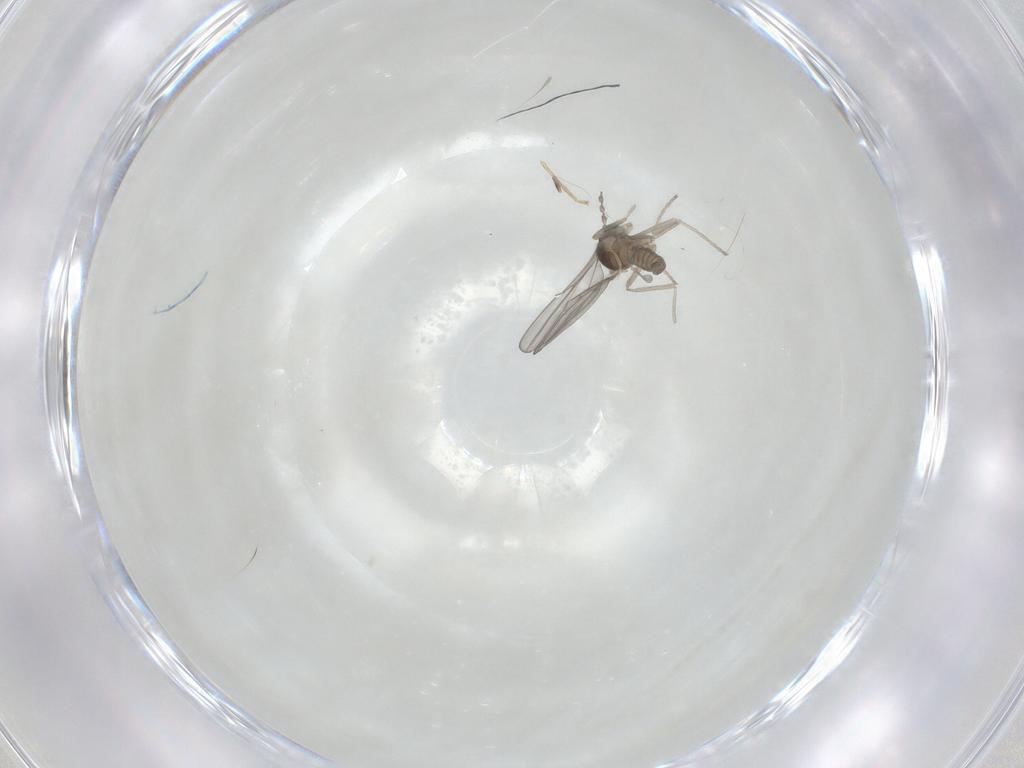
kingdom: Animalia
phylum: Arthropoda
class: Insecta
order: Diptera
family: Cecidomyiidae
